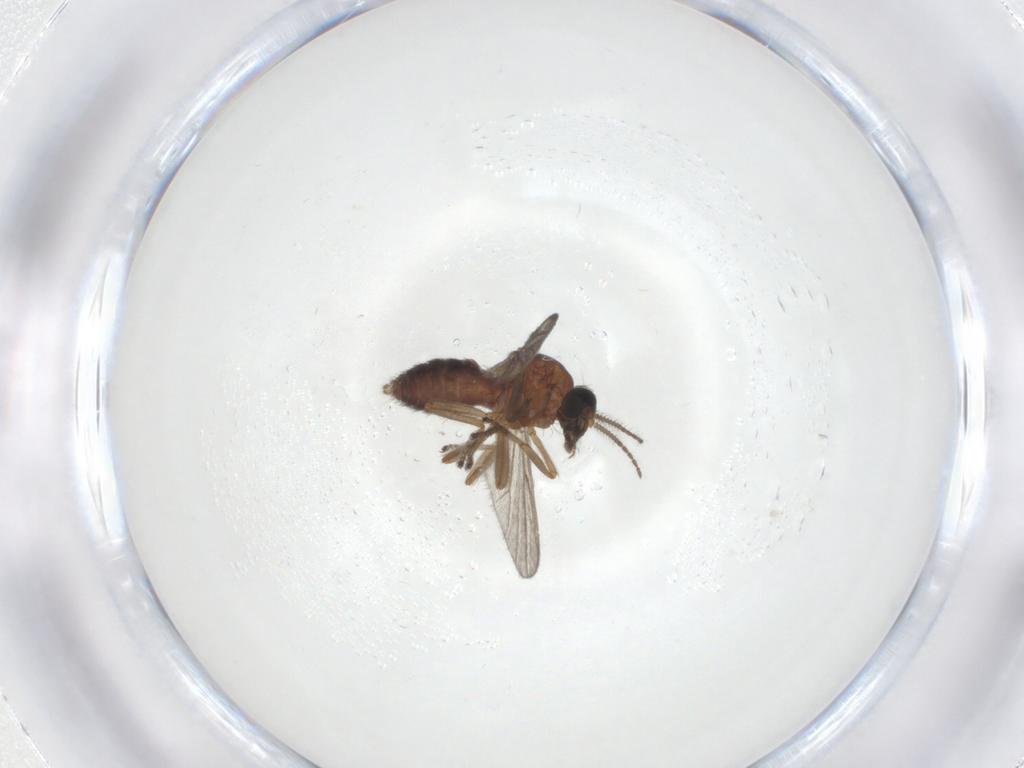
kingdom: Animalia
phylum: Arthropoda
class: Insecta
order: Diptera
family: Ceratopogonidae
